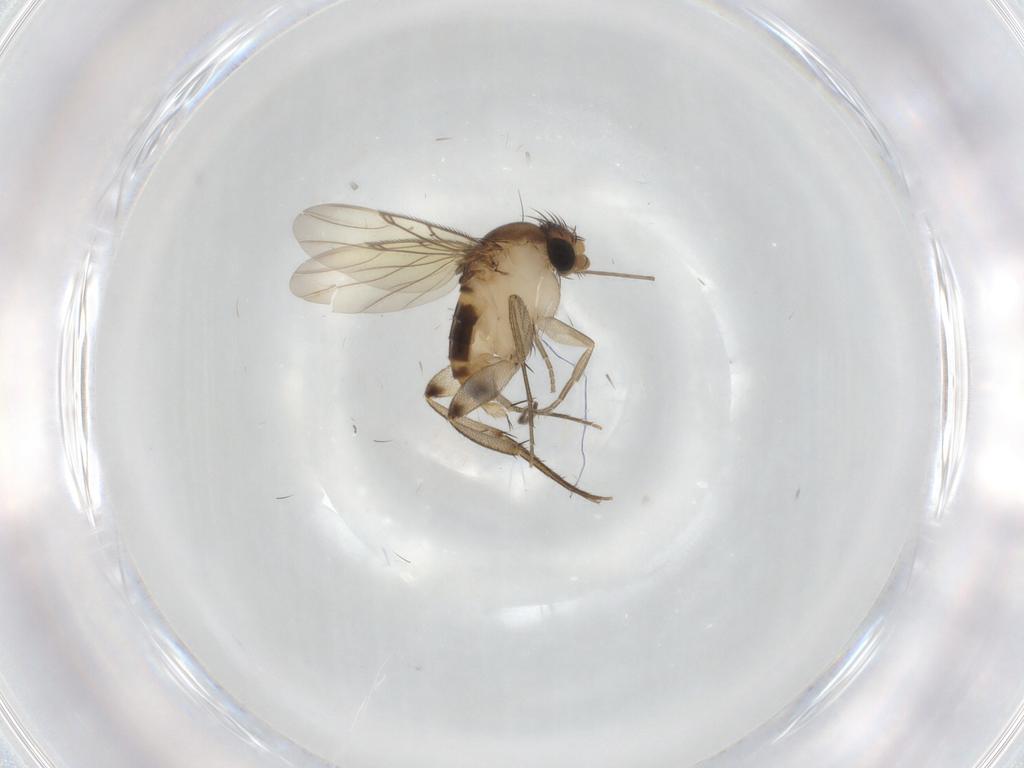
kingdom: Animalia
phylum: Arthropoda
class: Insecta
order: Diptera
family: Phoridae
